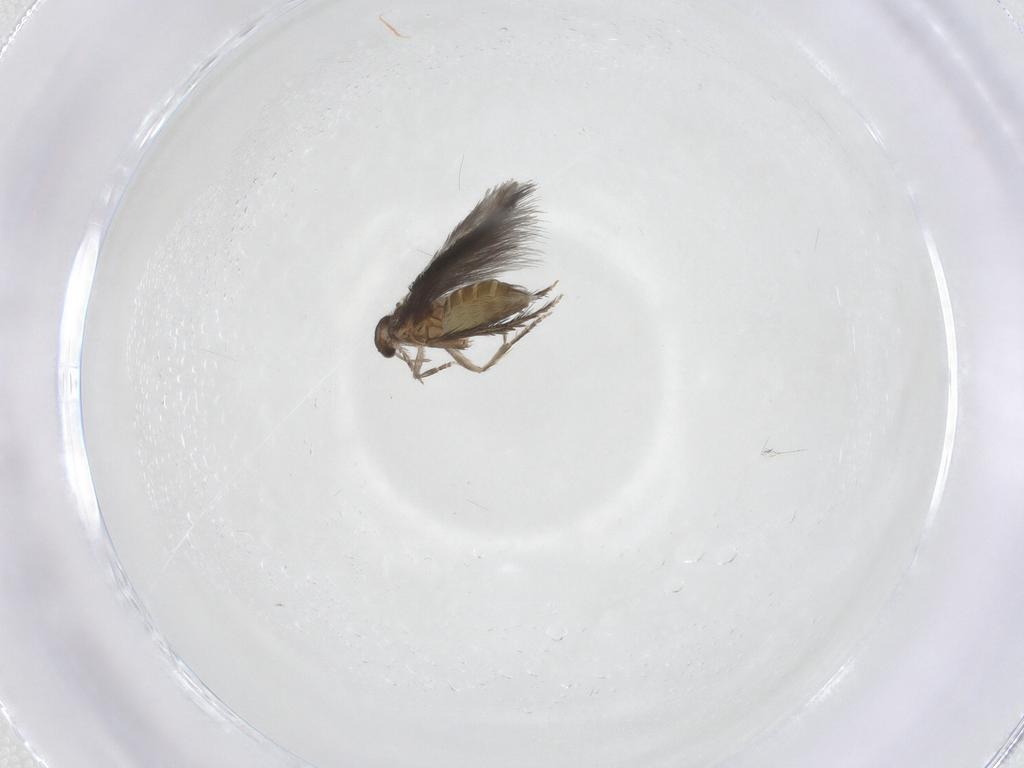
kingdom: Animalia
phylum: Arthropoda
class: Insecta
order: Trichoptera
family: Hydroptilidae
